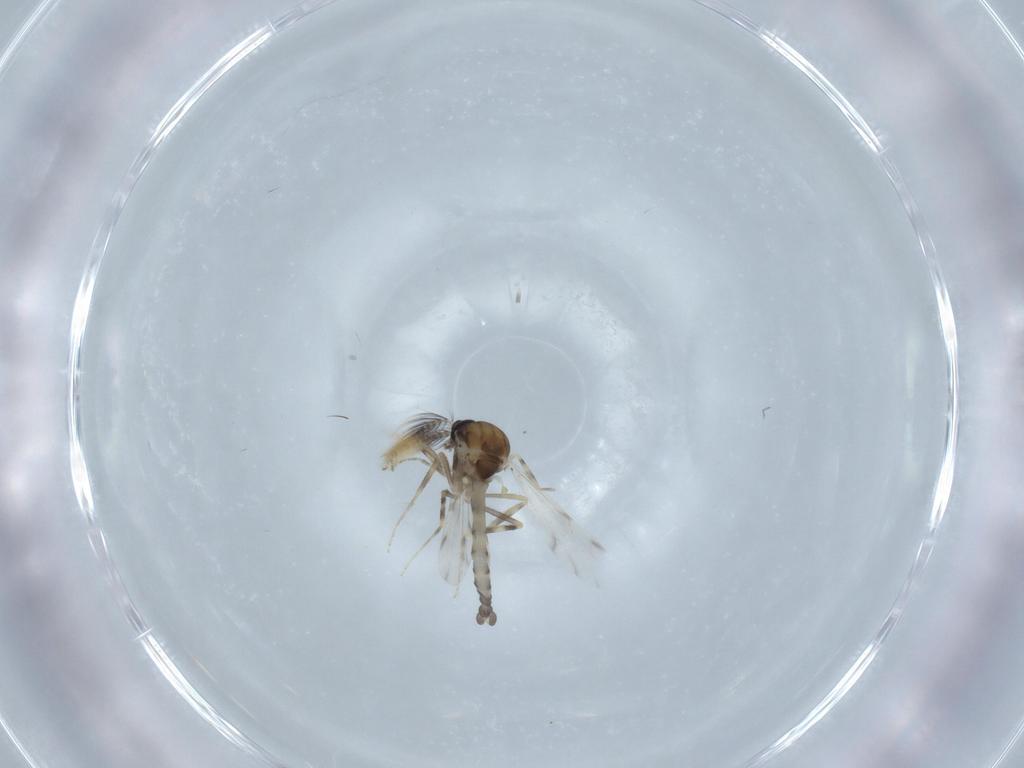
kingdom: Animalia
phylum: Arthropoda
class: Insecta
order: Diptera
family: Ceratopogonidae
